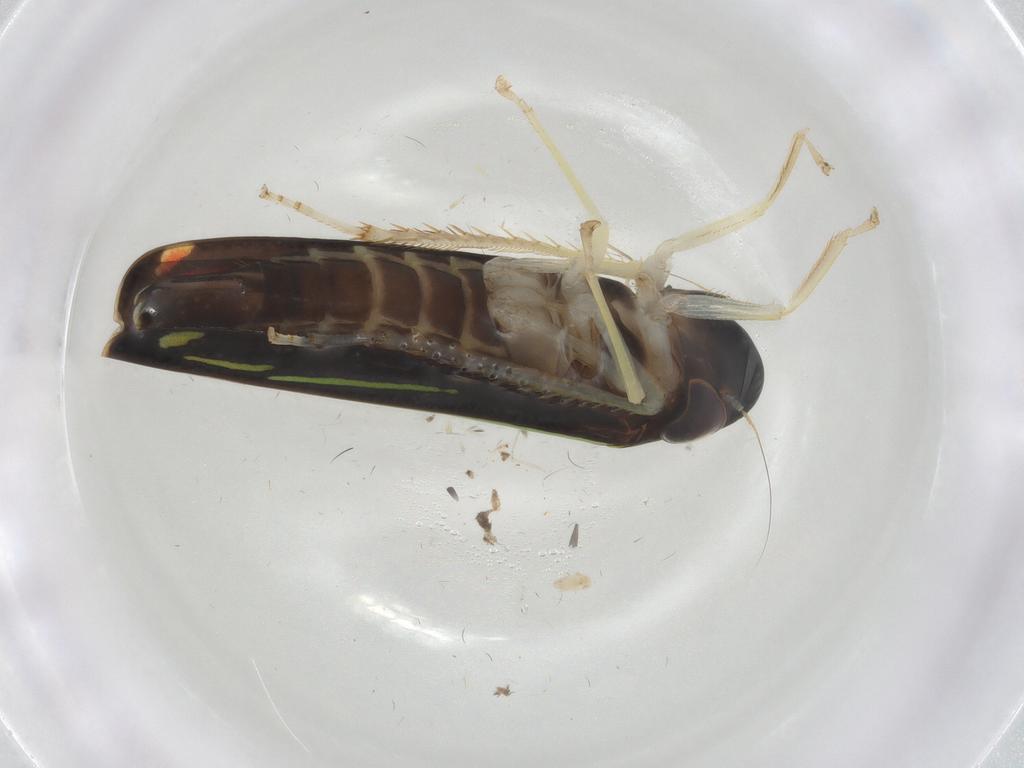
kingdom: Animalia
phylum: Arthropoda
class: Insecta
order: Hemiptera
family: Cicadellidae
